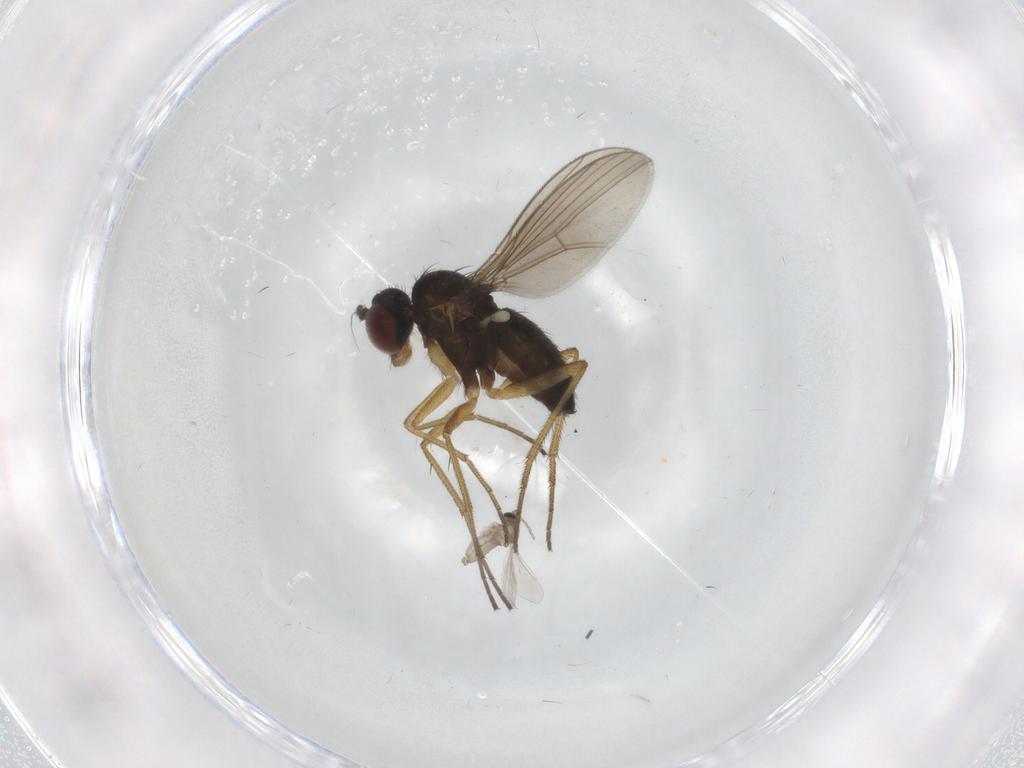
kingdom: Animalia
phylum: Arthropoda
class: Insecta
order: Diptera
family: Dolichopodidae
